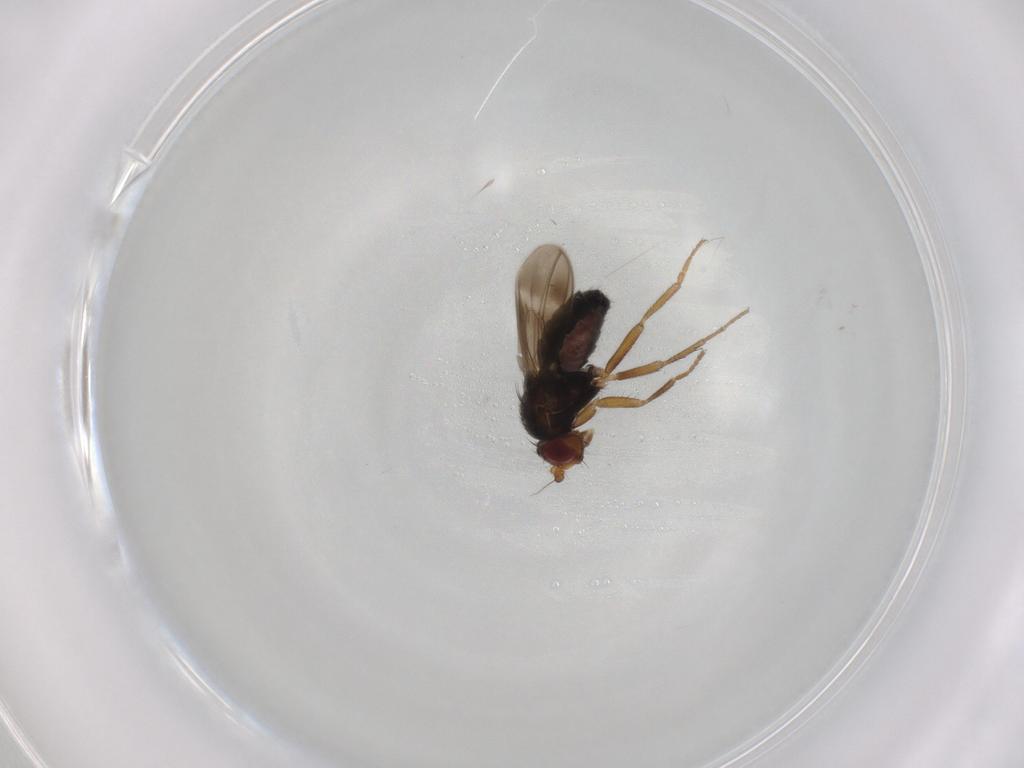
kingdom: Animalia
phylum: Arthropoda
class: Insecta
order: Diptera
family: Sphaeroceridae
